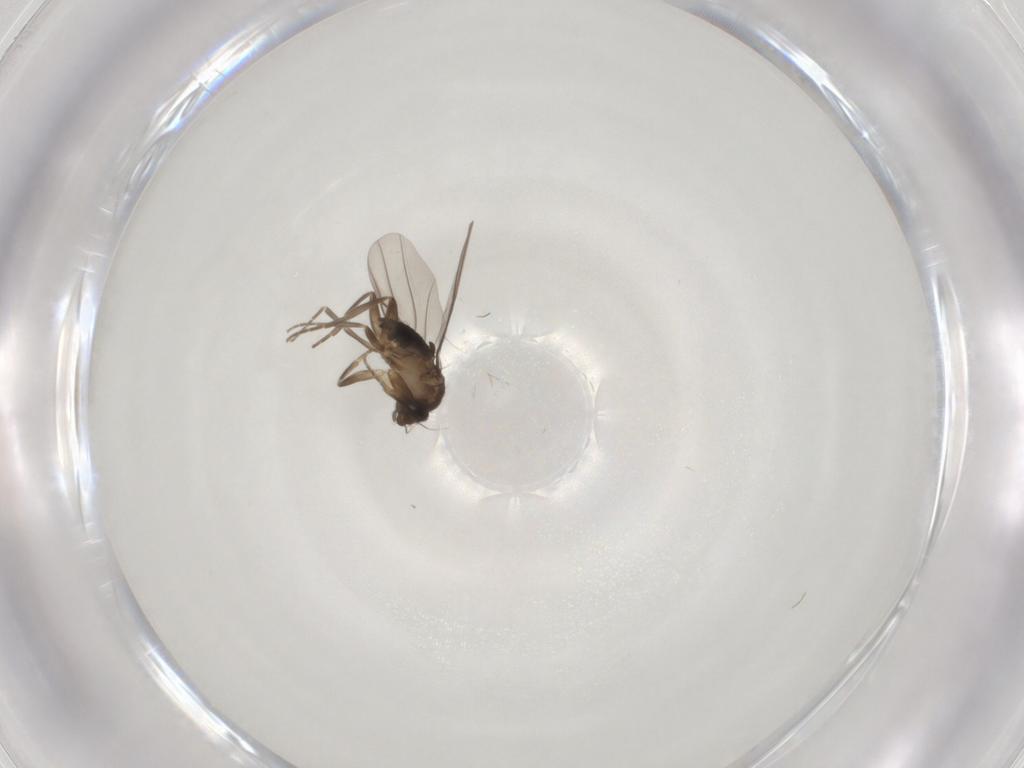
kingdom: Animalia
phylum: Arthropoda
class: Insecta
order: Diptera
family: Chironomidae
